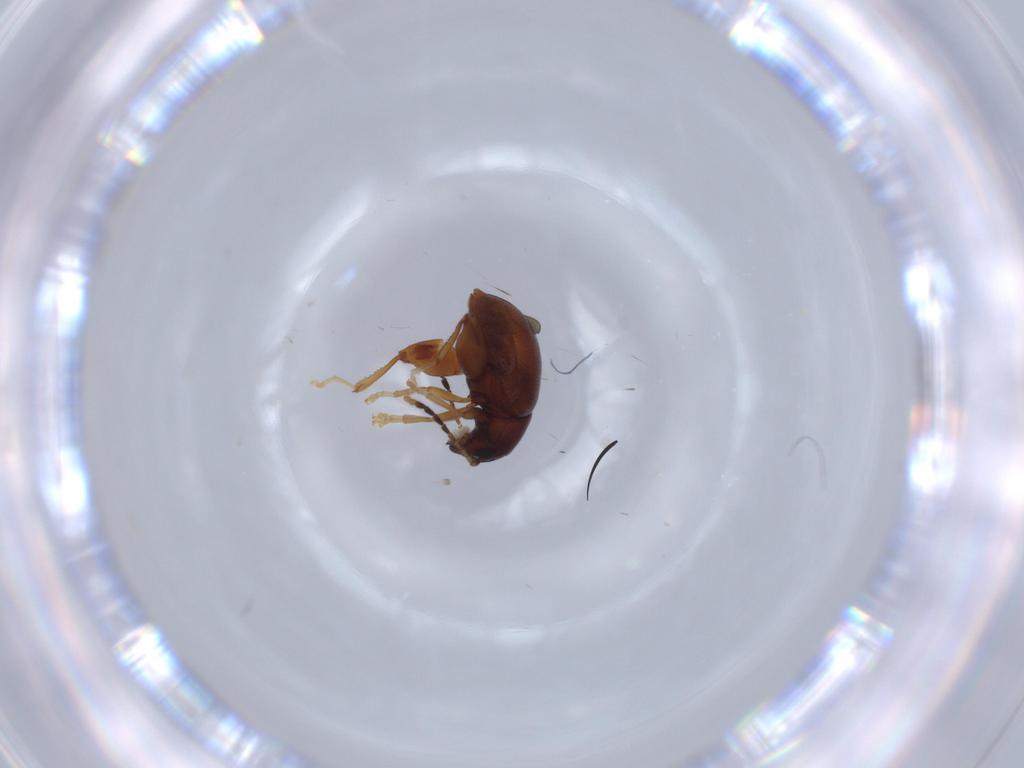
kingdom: Animalia
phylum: Arthropoda
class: Insecta
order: Coleoptera
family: Chrysomelidae
